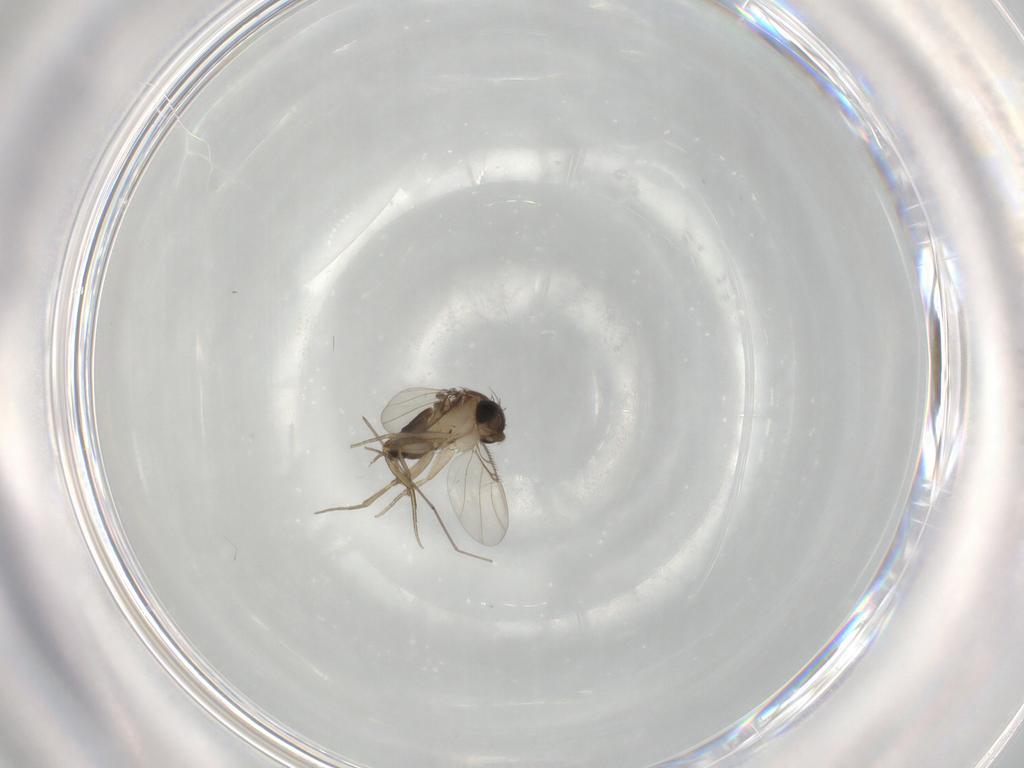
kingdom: Animalia
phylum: Arthropoda
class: Insecta
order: Diptera
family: Phoridae
